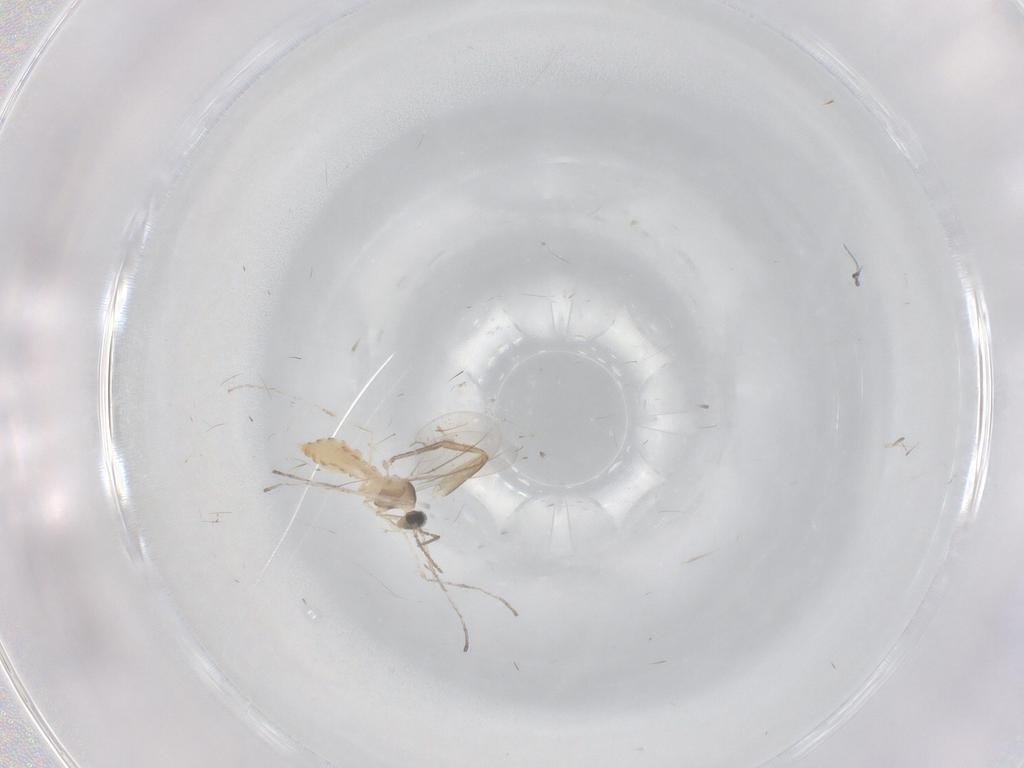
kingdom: Animalia
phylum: Arthropoda
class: Insecta
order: Diptera
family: Cecidomyiidae
